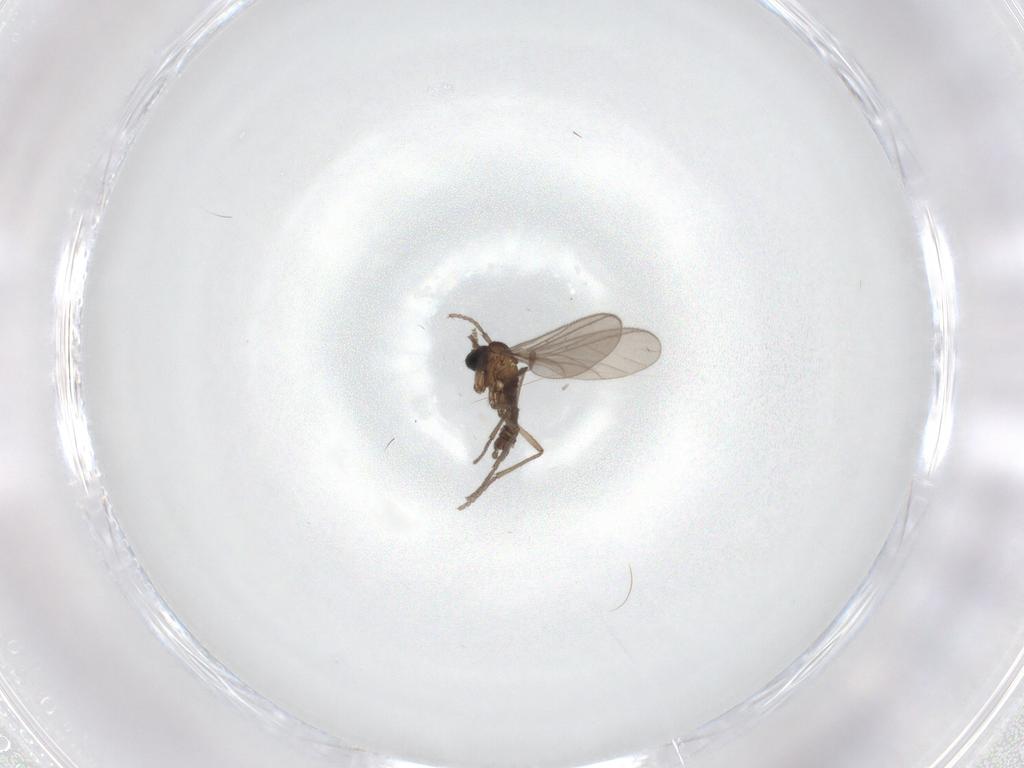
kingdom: Animalia
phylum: Arthropoda
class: Insecta
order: Diptera
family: Sciaridae
